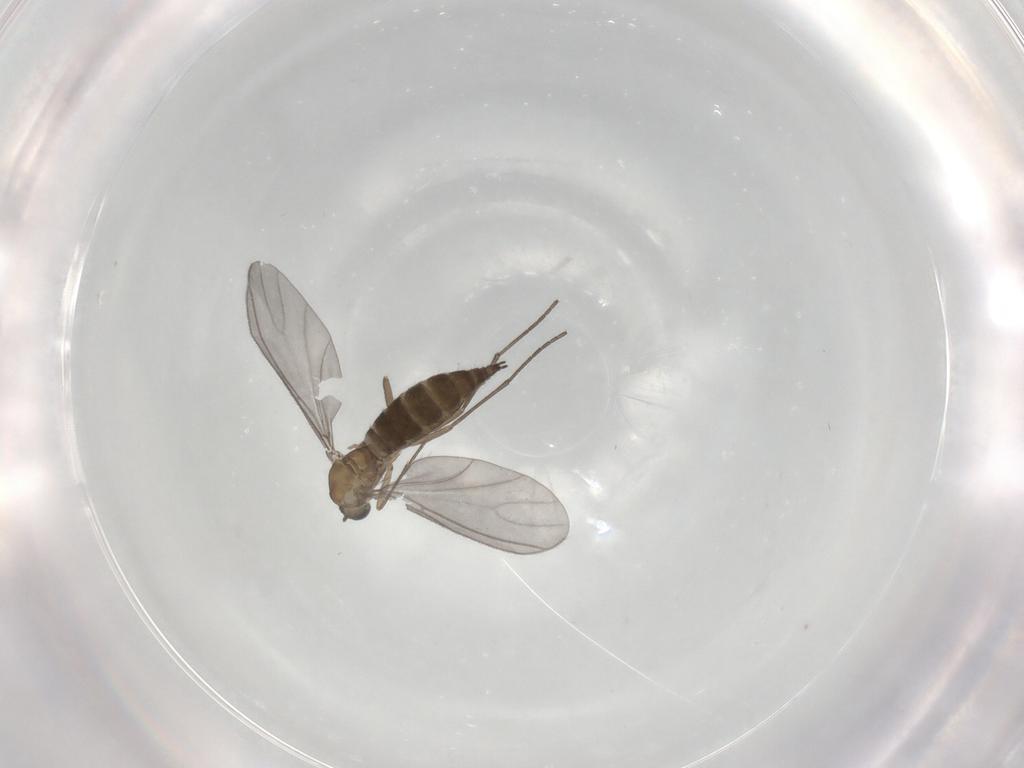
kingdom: Animalia
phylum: Arthropoda
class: Insecta
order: Diptera
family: Sciaridae
